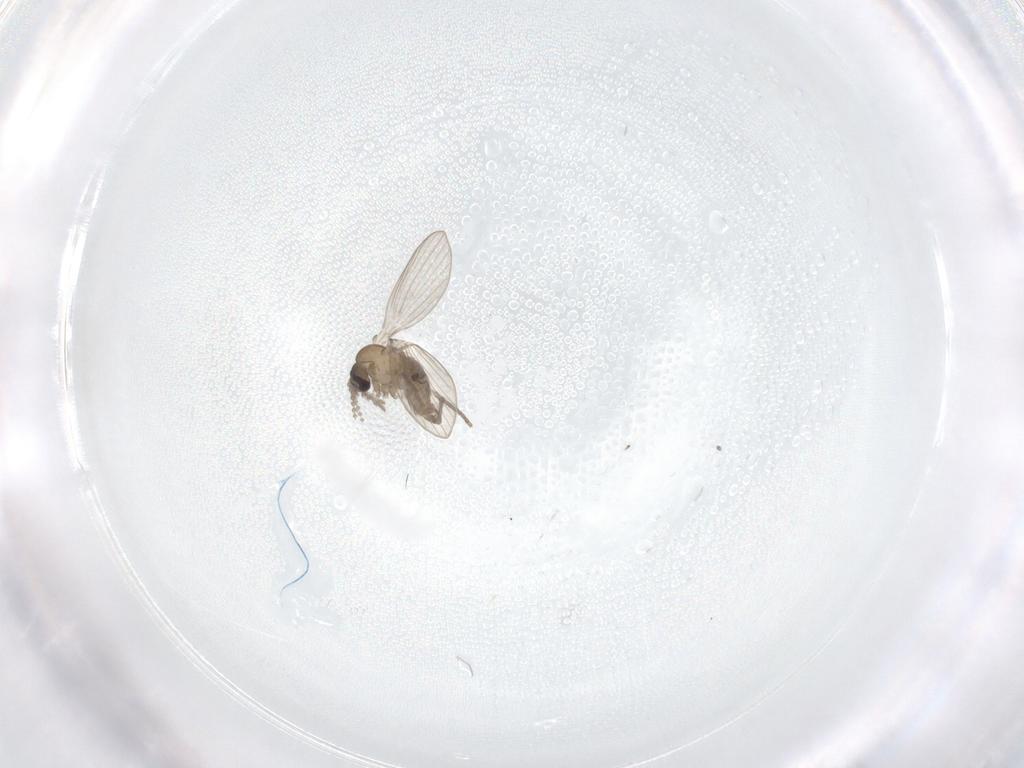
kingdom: Animalia
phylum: Arthropoda
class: Insecta
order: Diptera
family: Psychodidae
